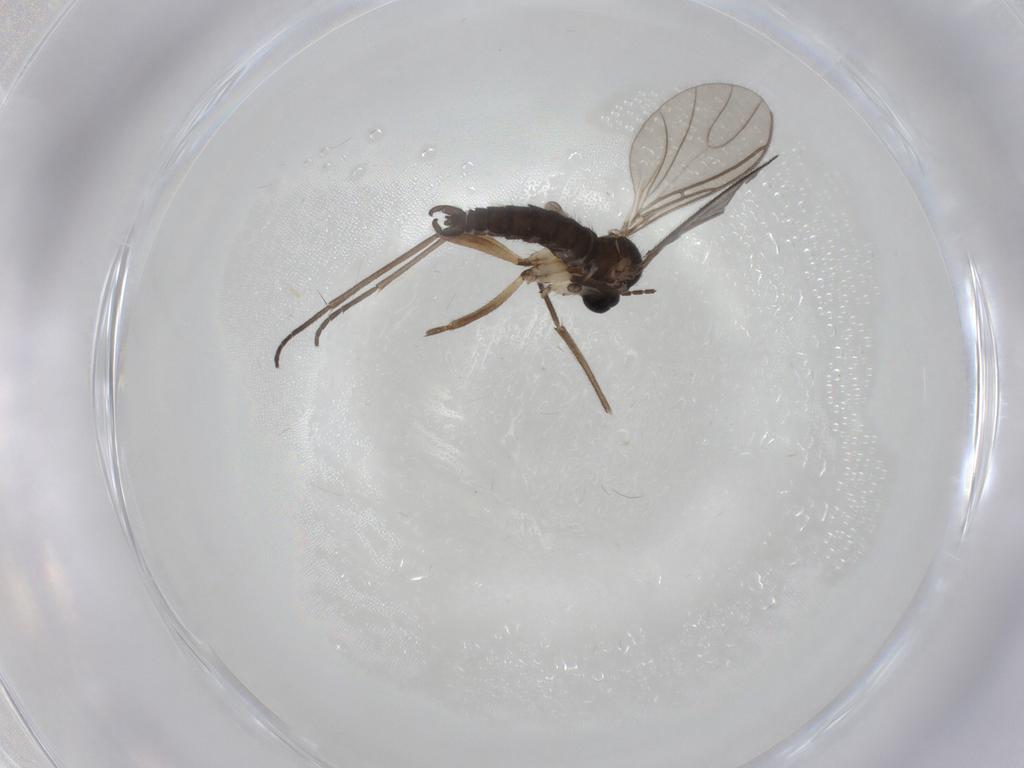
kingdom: Animalia
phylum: Arthropoda
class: Insecta
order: Diptera
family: Sciaridae
